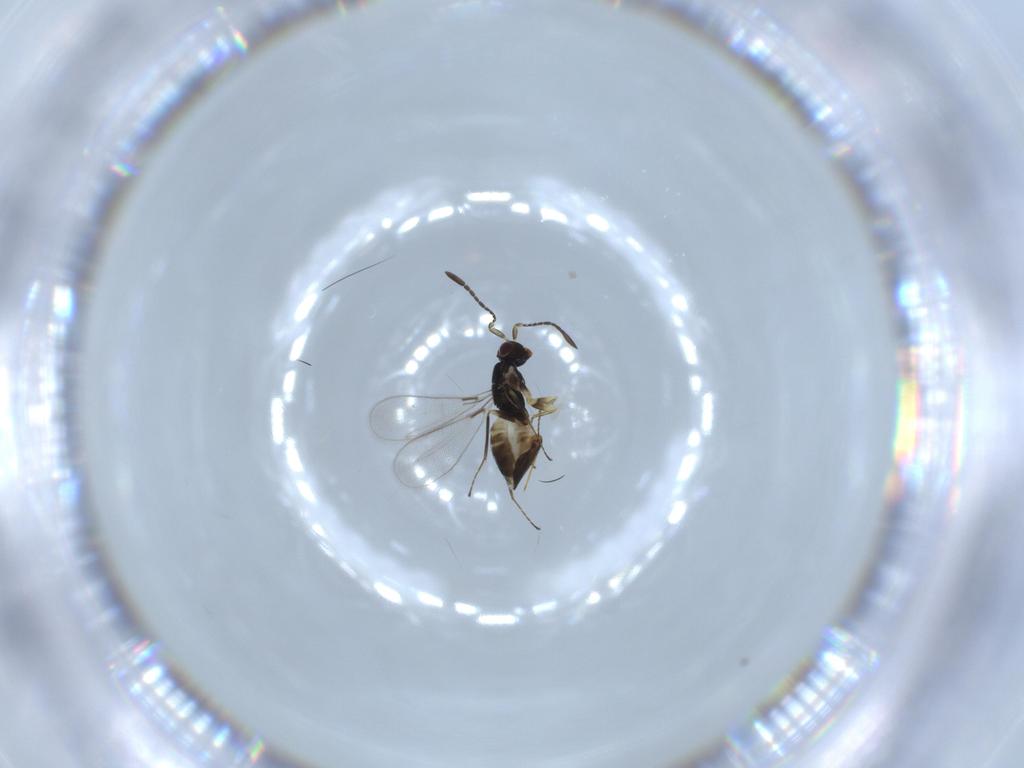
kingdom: Animalia
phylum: Arthropoda
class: Insecta
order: Hymenoptera
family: Mymaridae
